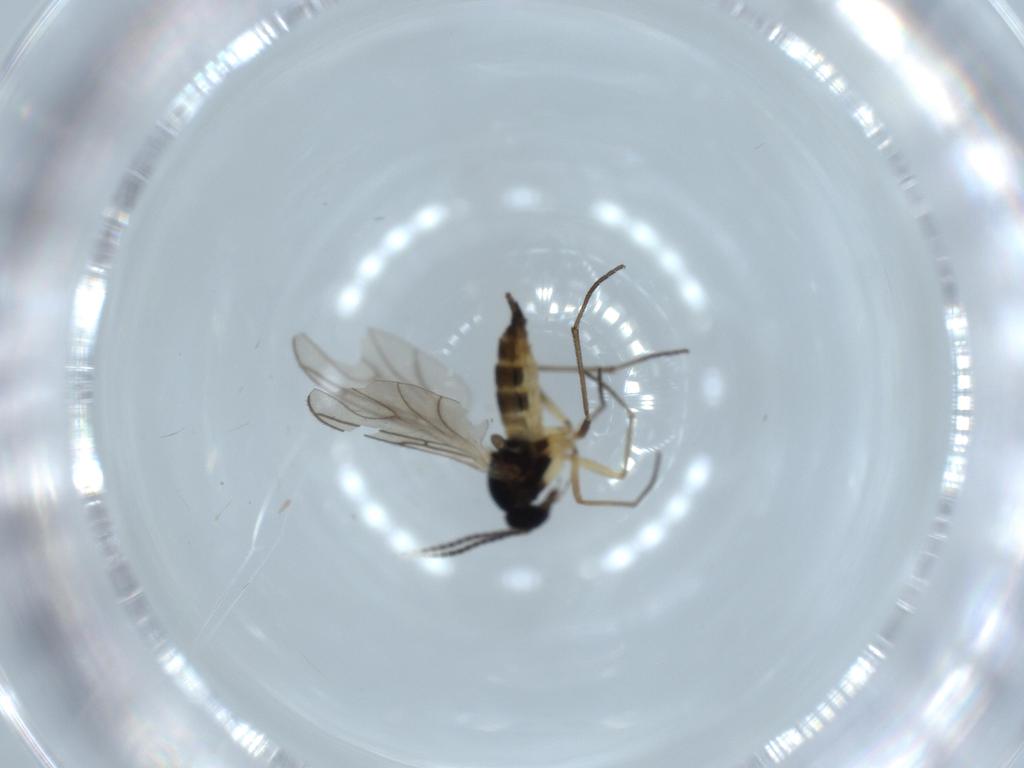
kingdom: Animalia
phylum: Arthropoda
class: Insecta
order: Diptera
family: Sciaridae
